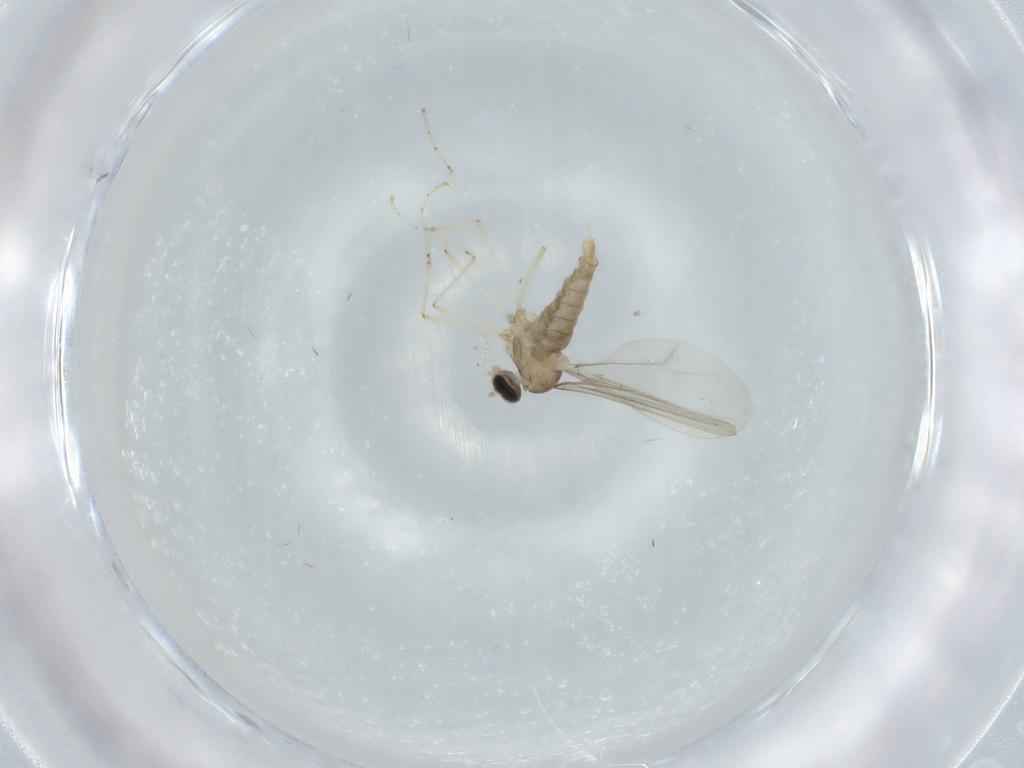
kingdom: Animalia
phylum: Arthropoda
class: Insecta
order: Diptera
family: Cecidomyiidae
